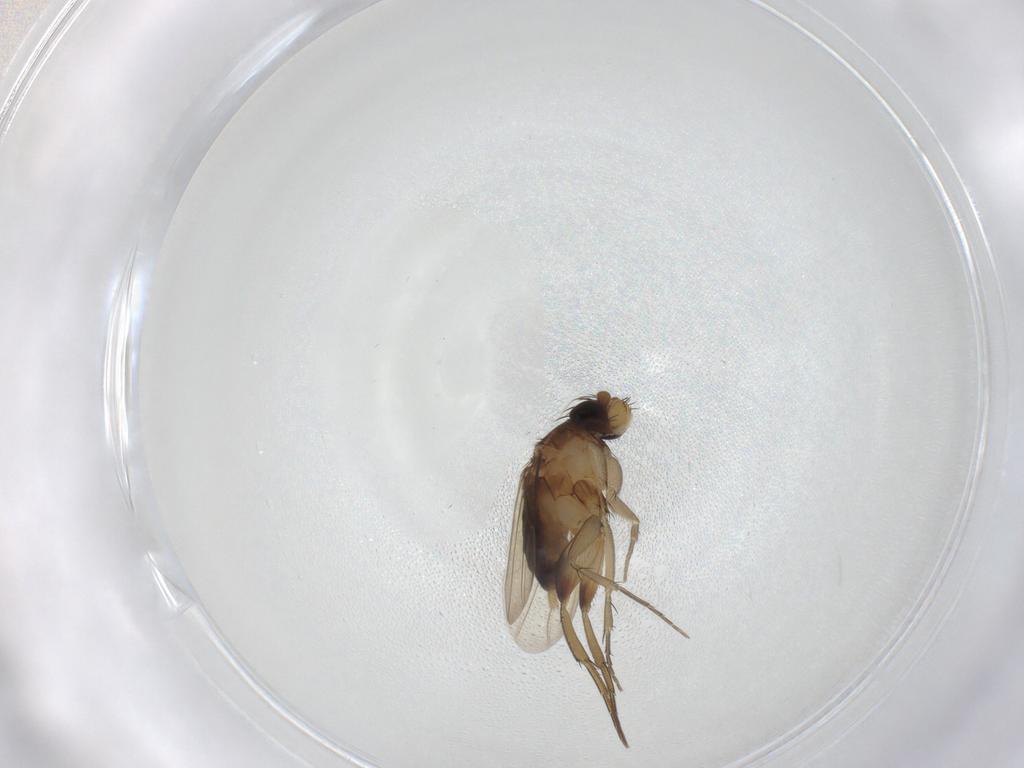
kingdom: Animalia
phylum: Arthropoda
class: Insecta
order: Diptera
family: Phoridae
